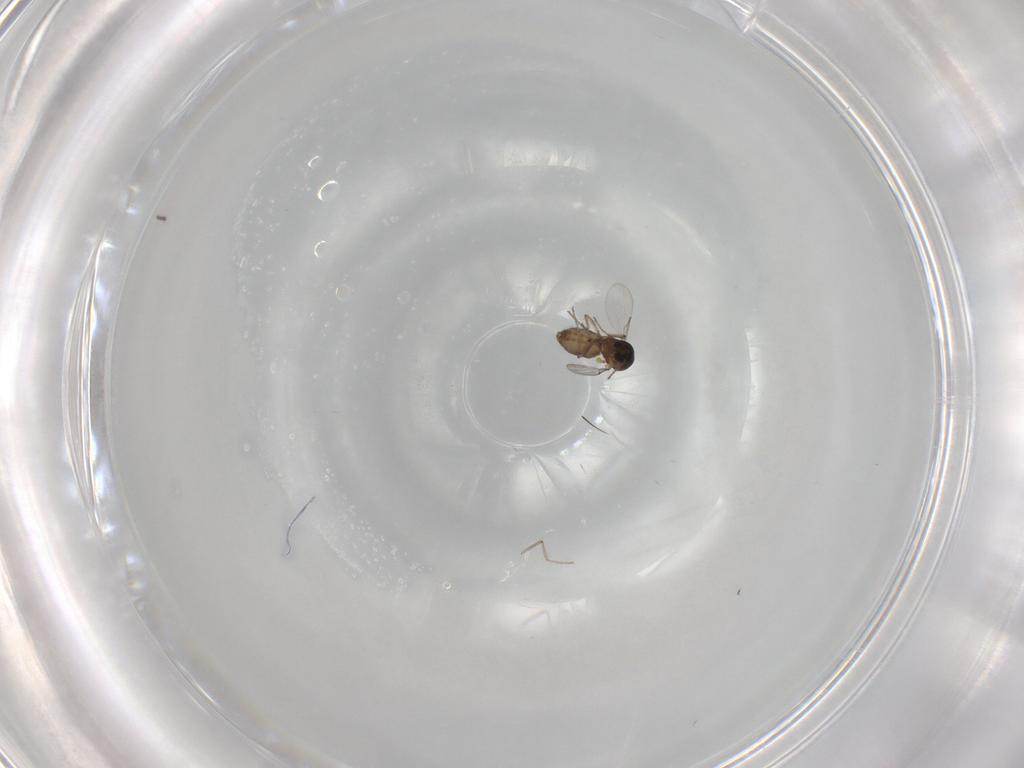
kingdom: Animalia
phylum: Arthropoda
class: Insecta
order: Diptera
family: Ceratopogonidae
